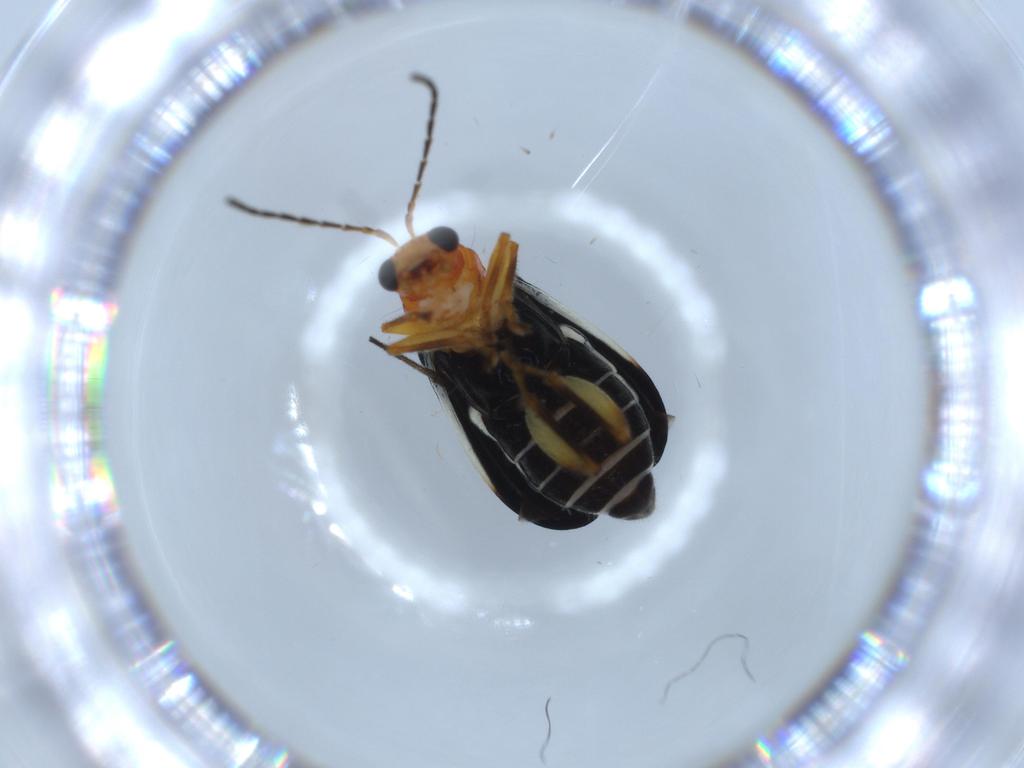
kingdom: Animalia
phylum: Arthropoda
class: Insecta
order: Coleoptera
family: Chrysomelidae
